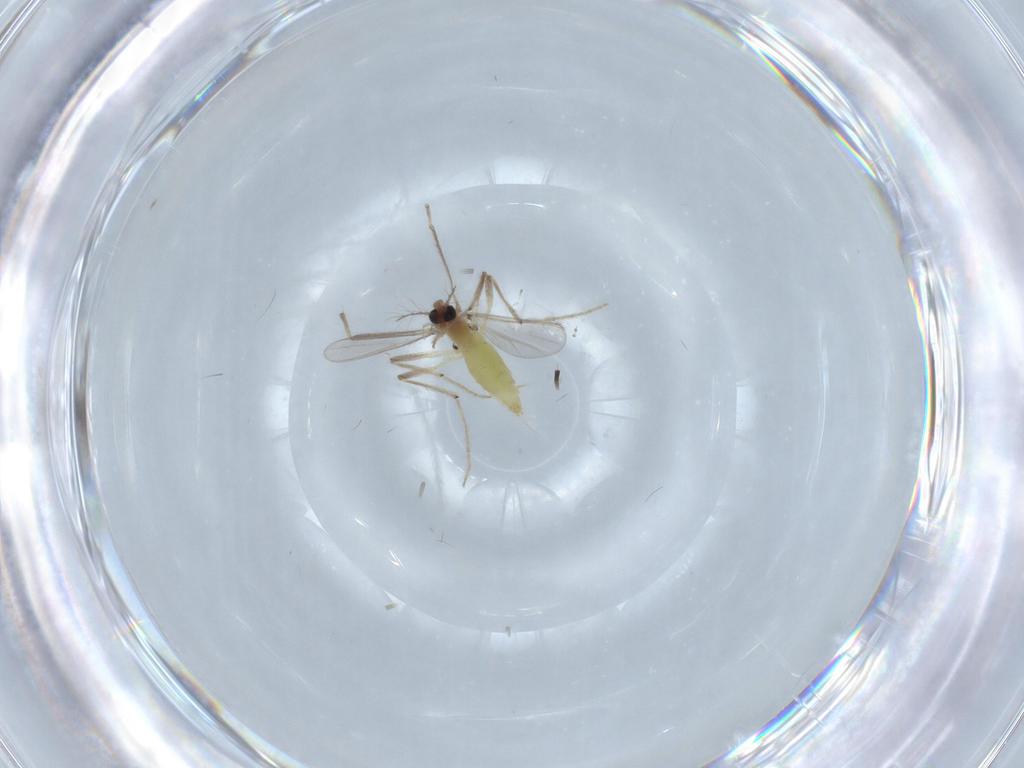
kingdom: Animalia
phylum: Arthropoda
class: Insecta
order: Diptera
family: Chironomidae
